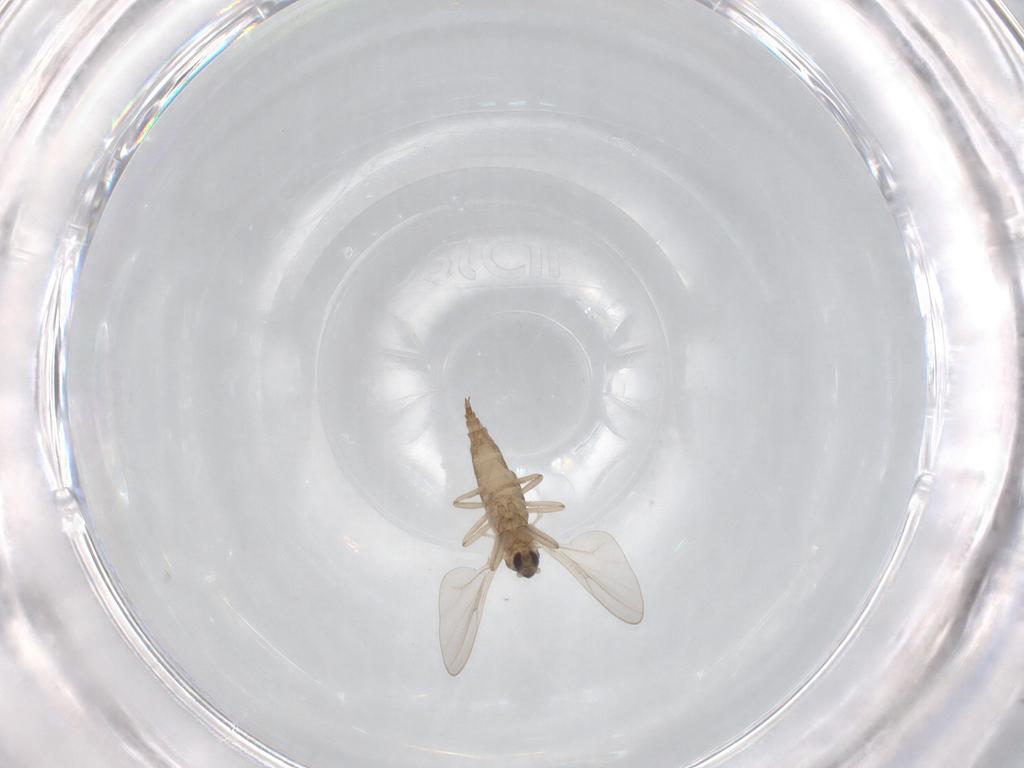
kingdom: Animalia
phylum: Arthropoda
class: Insecta
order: Diptera
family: Cecidomyiidae
